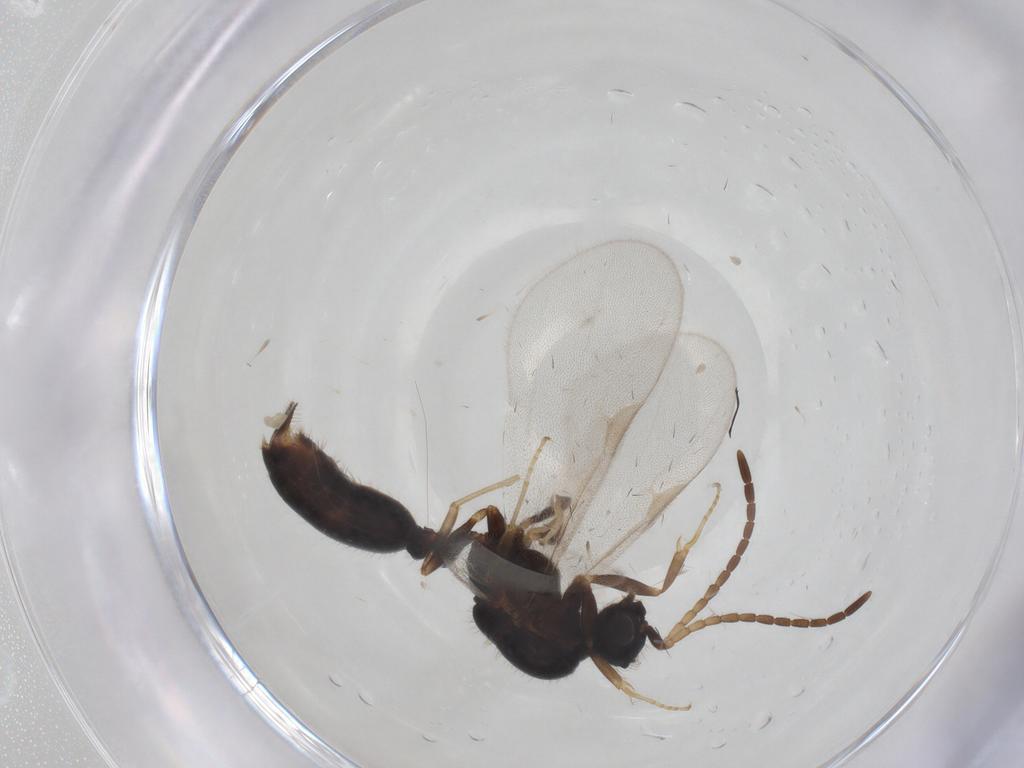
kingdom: Animalia
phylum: Arthropoda
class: Insecta
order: Hymenoptera
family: Formicidae
